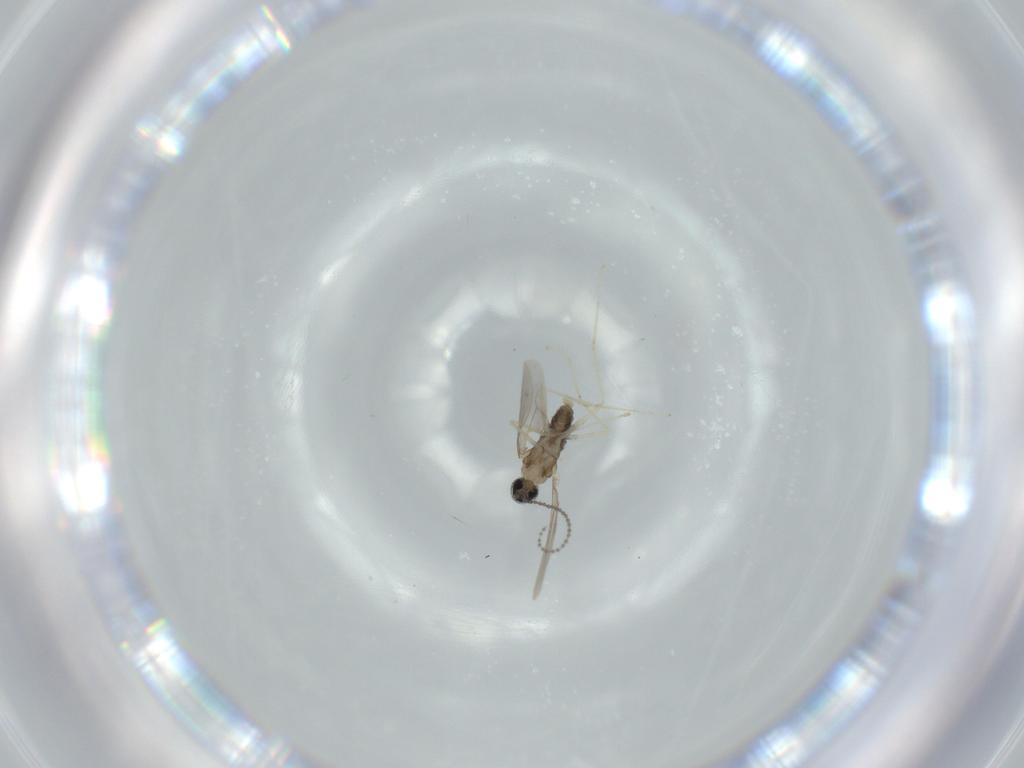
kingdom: Animalia
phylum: Arthropoda
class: Insecta
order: Diptera
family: Cecidomyiidae
